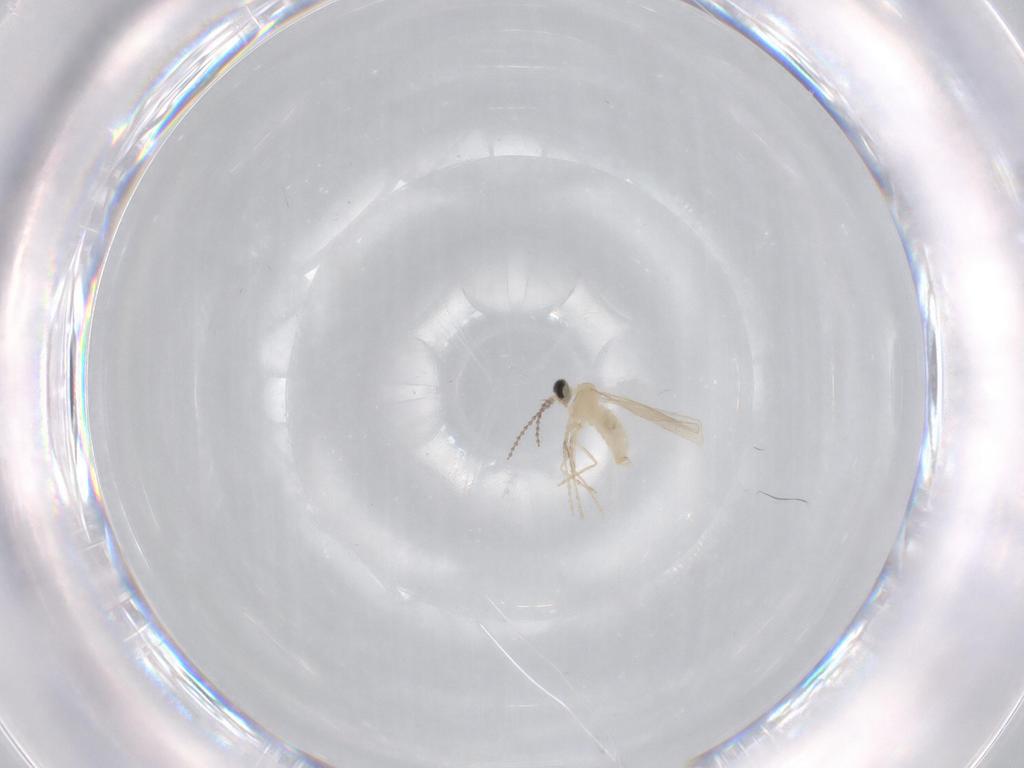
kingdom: Animalia
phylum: Arthropoda
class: Insecta
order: Diptera
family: Cecidomyiidae
